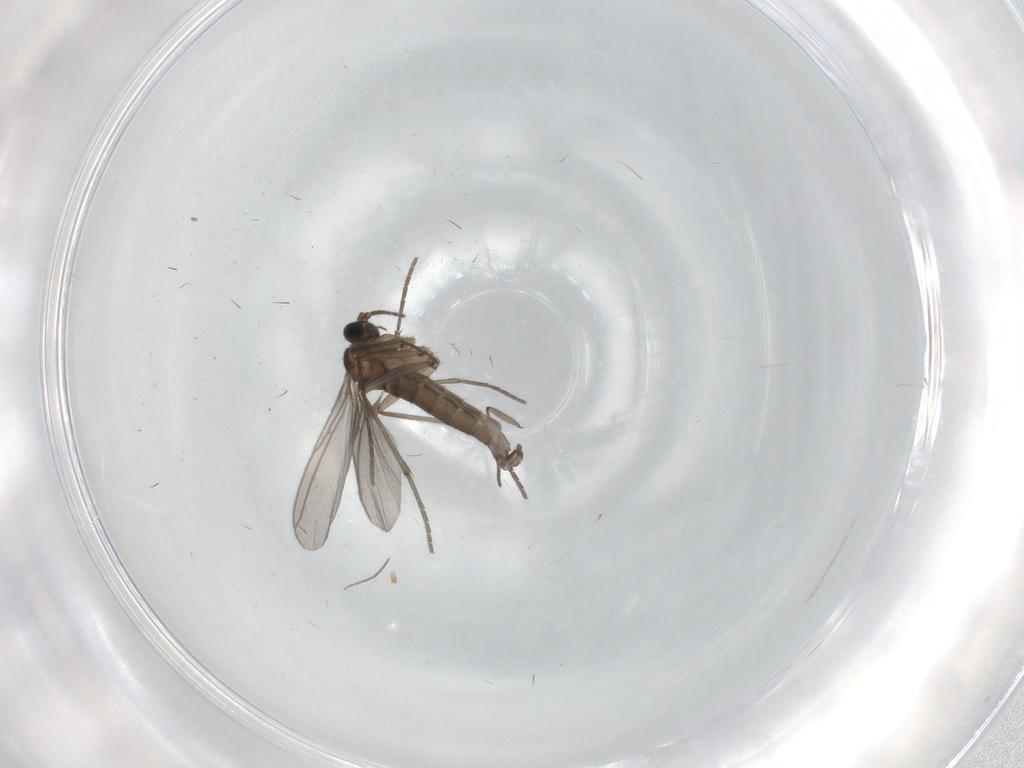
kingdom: Animalia
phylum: Arthropoda
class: Insecta
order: Diptera
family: Sciaridae
